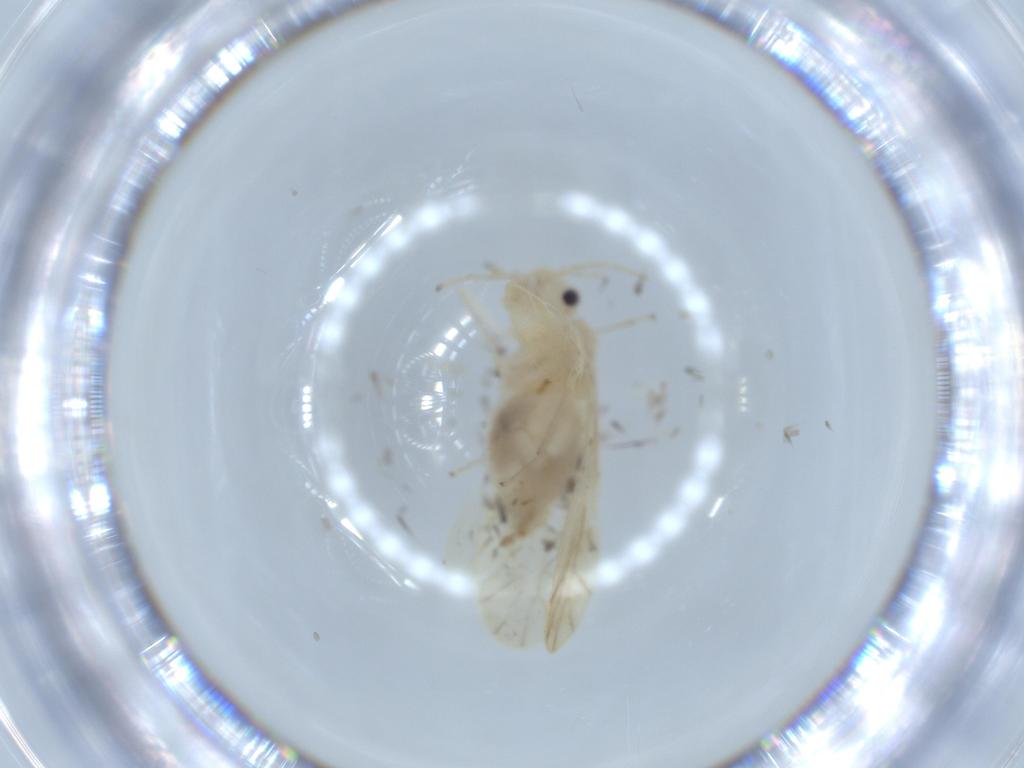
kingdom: Animalia
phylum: Arthropoda
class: Insecta
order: Psocodea
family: Caeciliusidae
